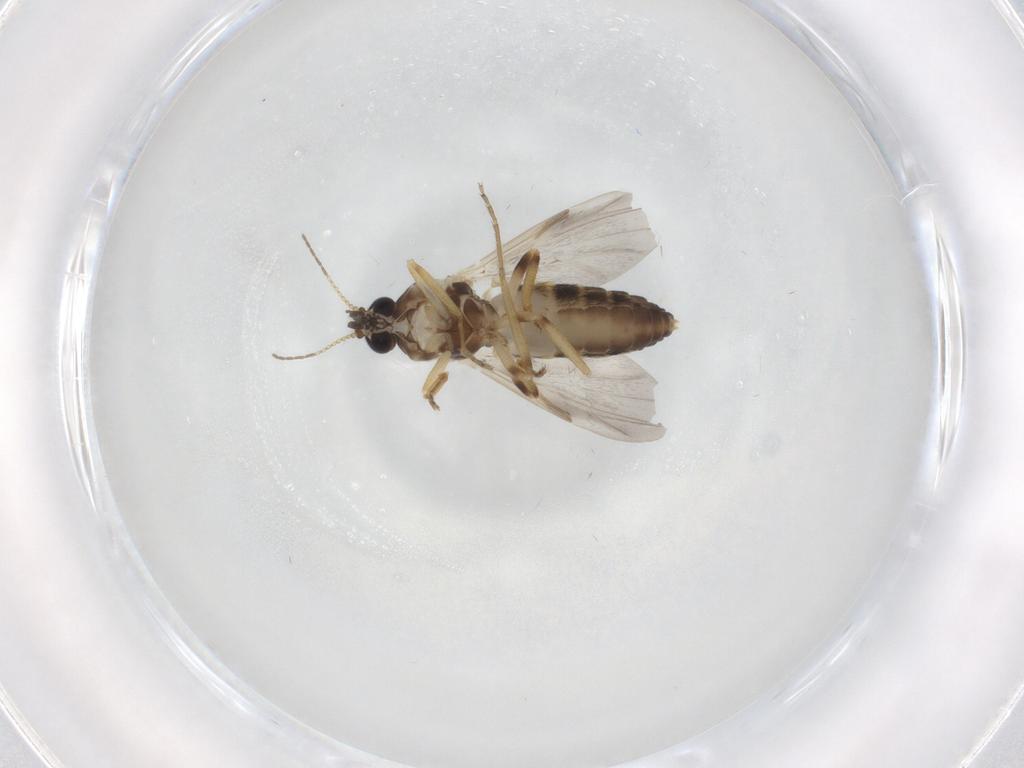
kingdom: Animalia
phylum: Arthropoda
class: Insecta
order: Diptera
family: Ceratopogonidae
